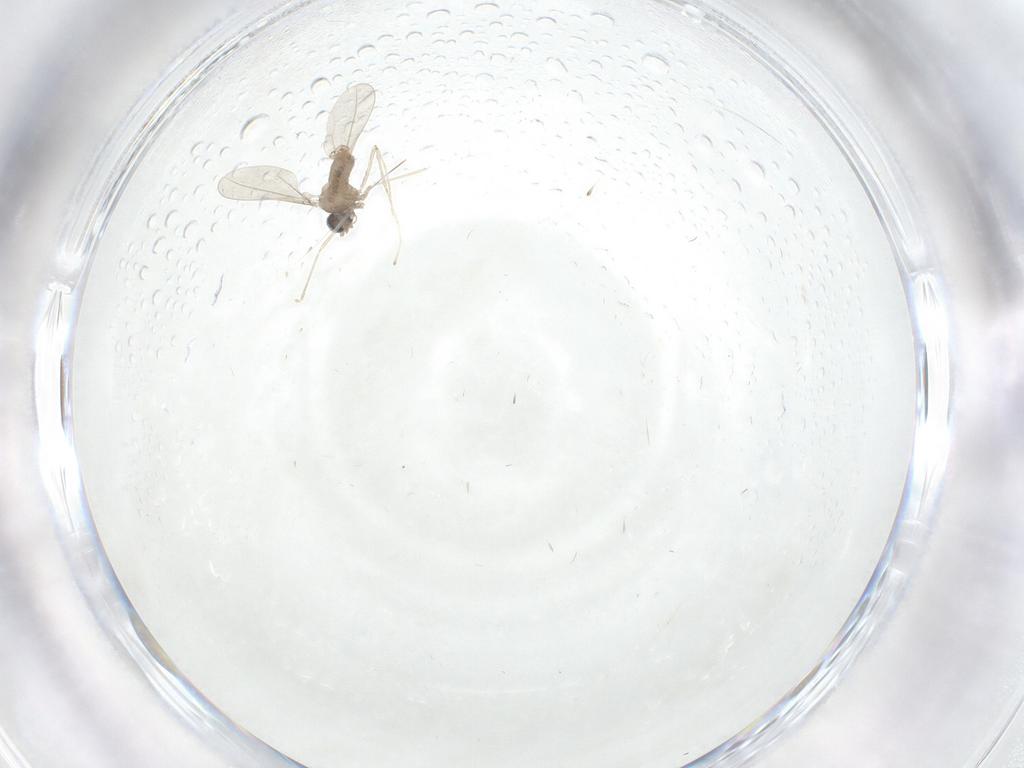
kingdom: Animalia
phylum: Arthropoda
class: Insecta
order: Diptera
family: Cecidomyiidae
